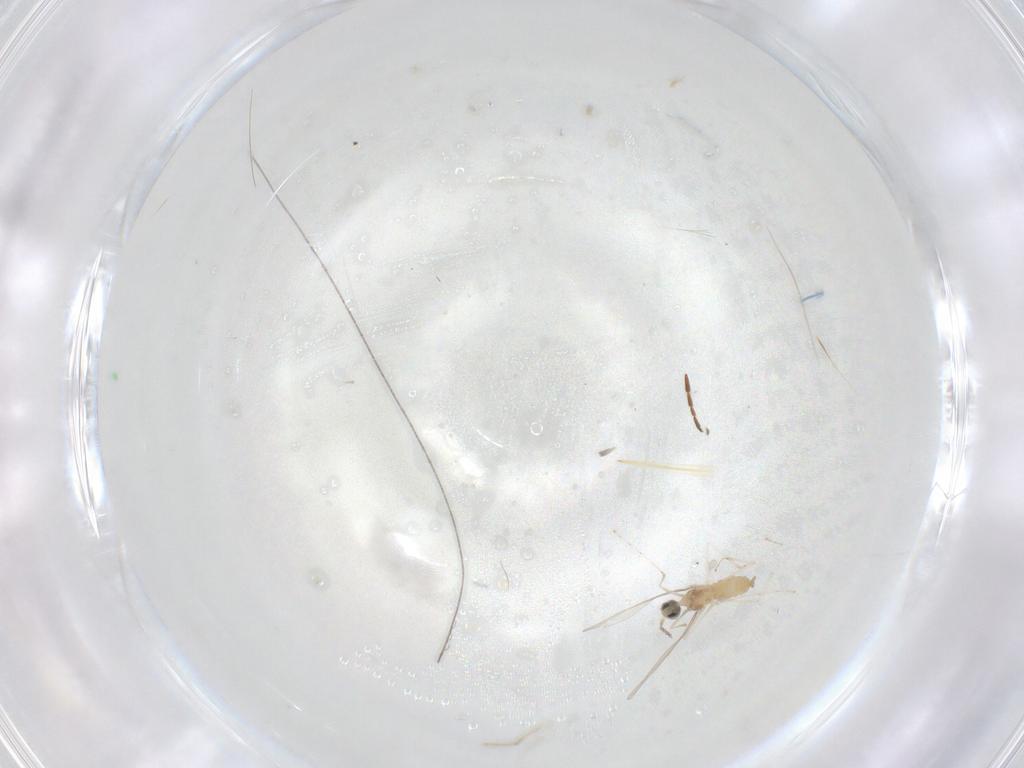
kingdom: Animalia
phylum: Arthropoda
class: Insecta
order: Diptera
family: Cecidomyiidae
